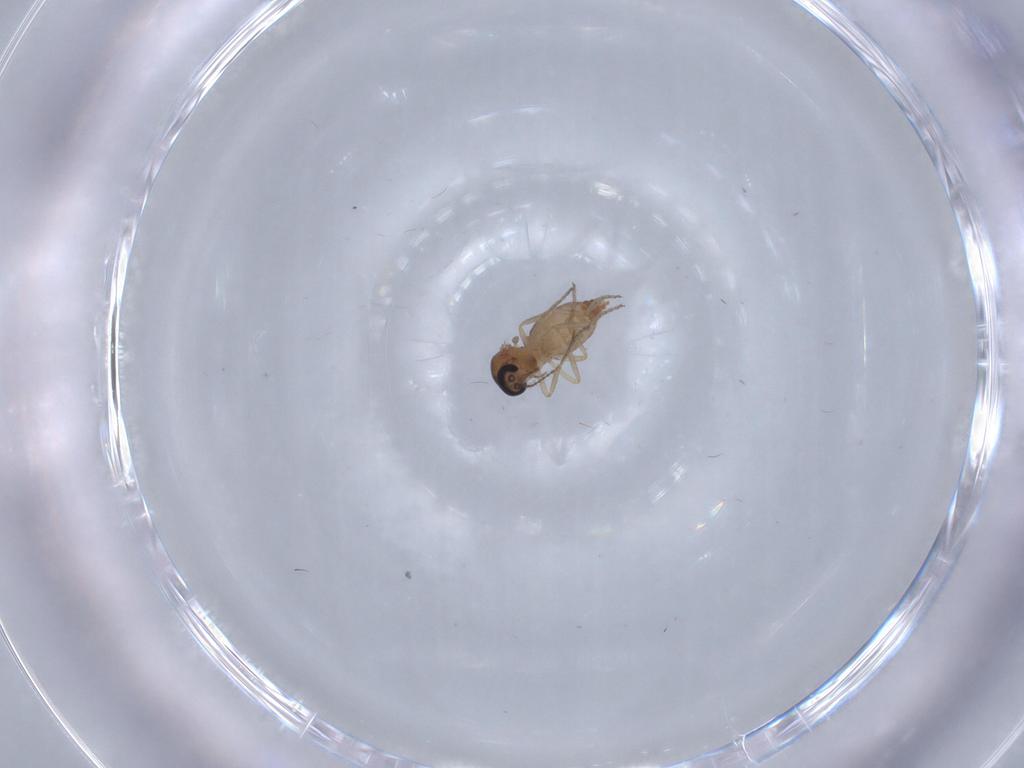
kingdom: Animalia
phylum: Arthropoda
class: Insecta
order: Diptera
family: Ceratopogonidae
